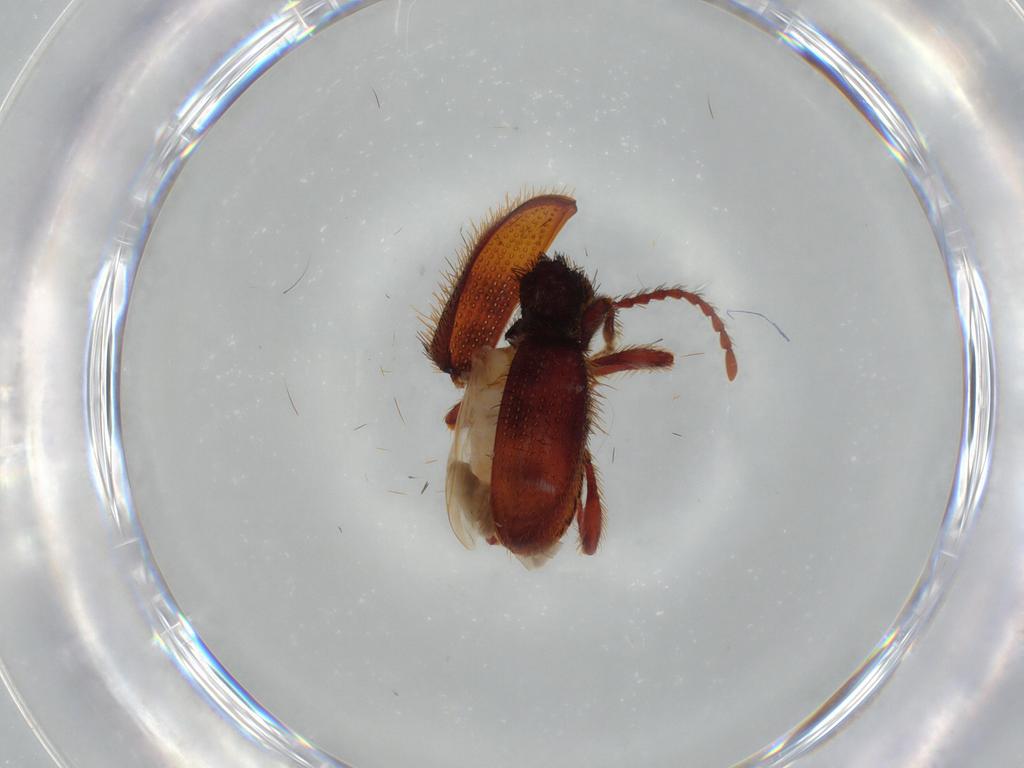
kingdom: Animalia
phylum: Arthropoda
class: Insecta
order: Coleoptera
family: Ptinidae
